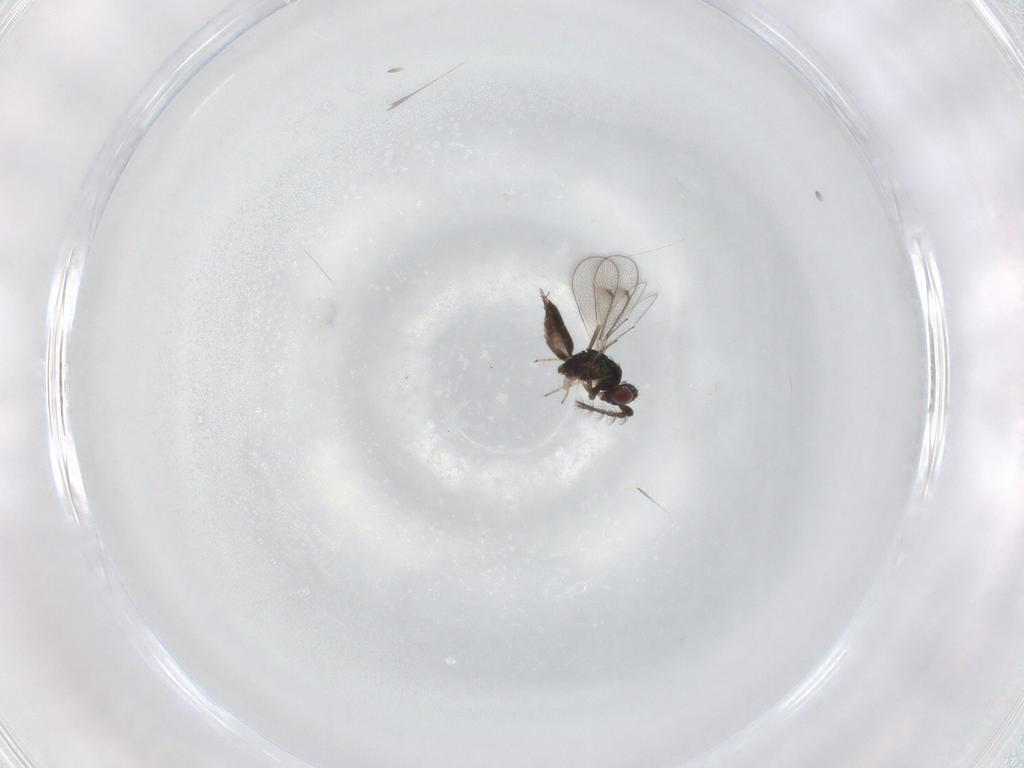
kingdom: Animalia
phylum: Arthropoda
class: Insecta
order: Hymenoptera
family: Eulophidae
